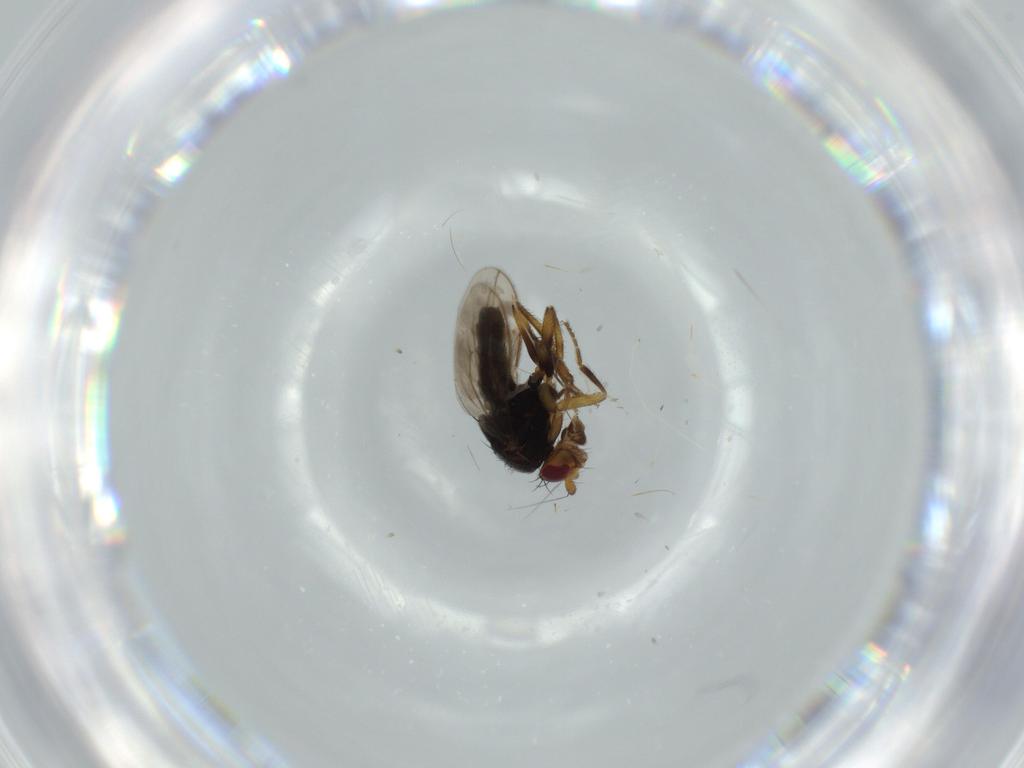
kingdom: Animalia
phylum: Arthropoda
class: Insecta
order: Diptera
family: Sphaeroceridae
